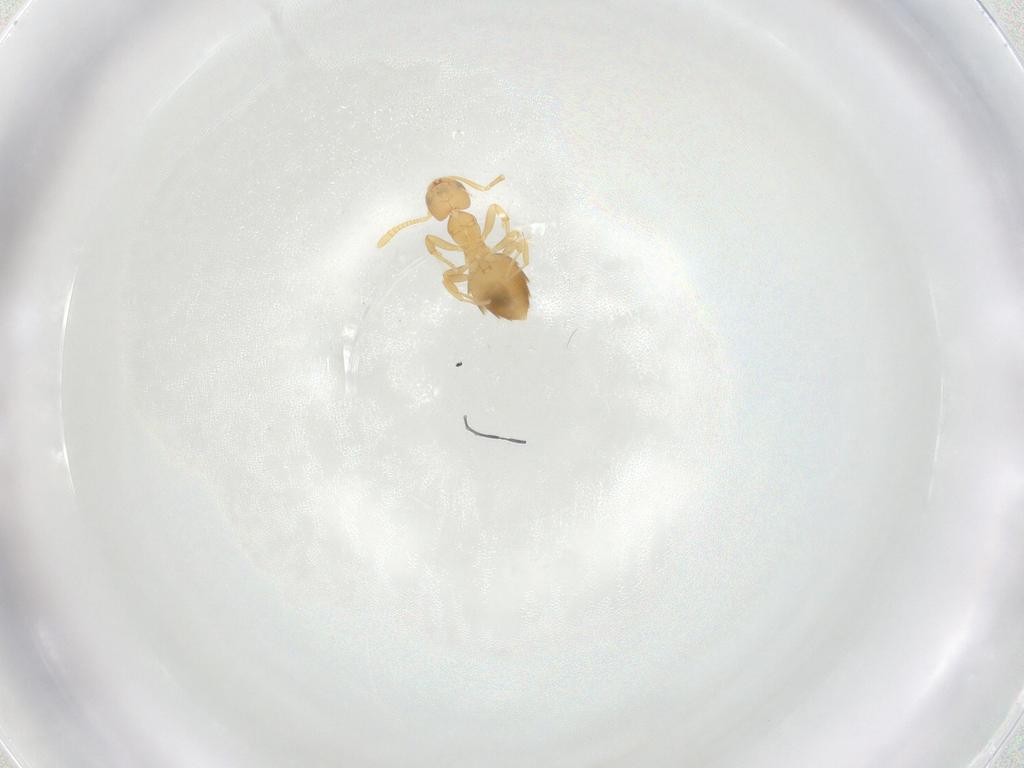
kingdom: Animalia
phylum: Arthropoda
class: Insecta
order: Hymenoptera
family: Formicidae
